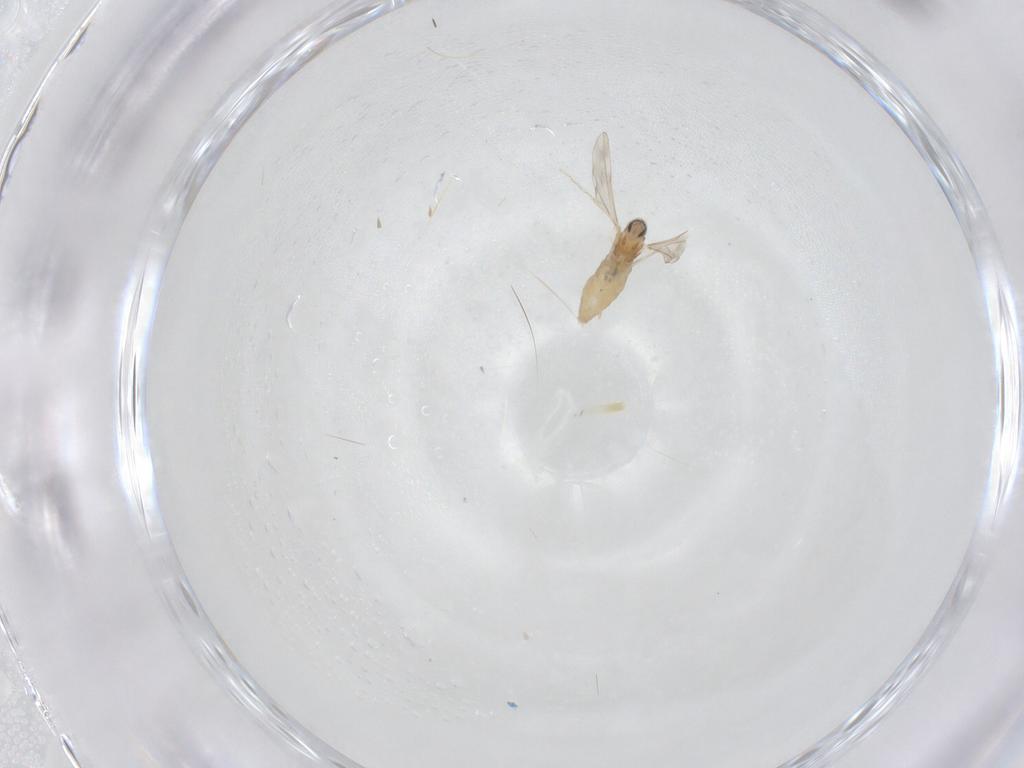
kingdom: Animalia
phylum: Arthropoda
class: Insecta
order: Diptera
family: Cecidomyiidae
